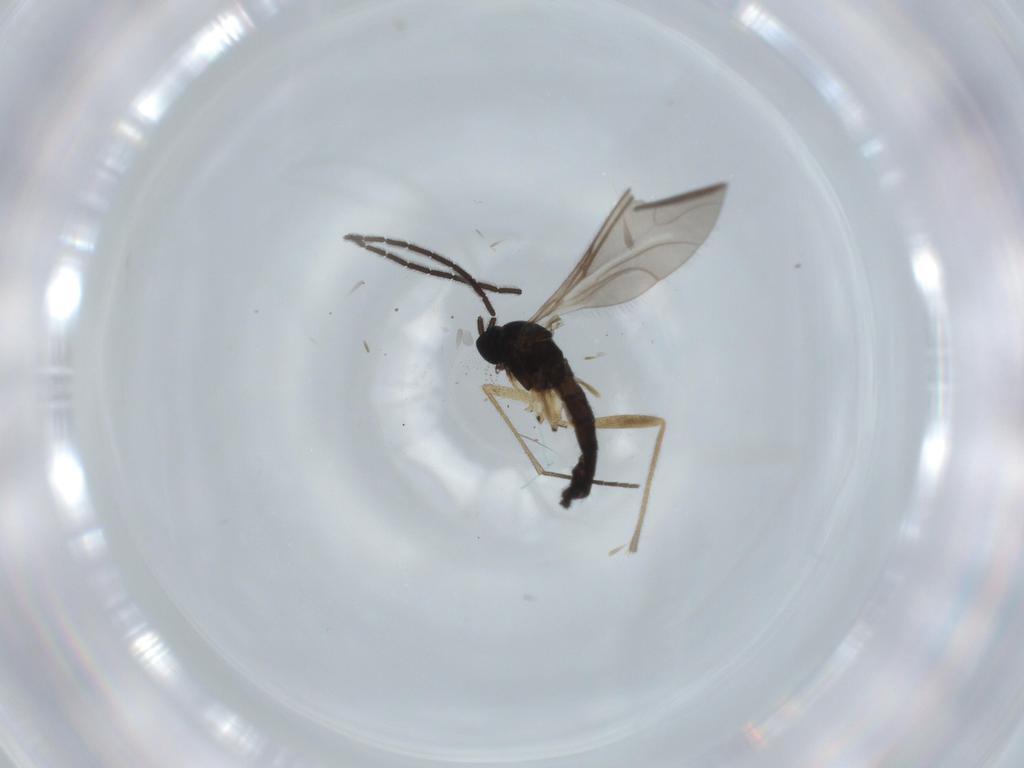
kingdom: Animalia
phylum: Arthropoda
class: Insecta
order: Diptera
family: Sciaridae
